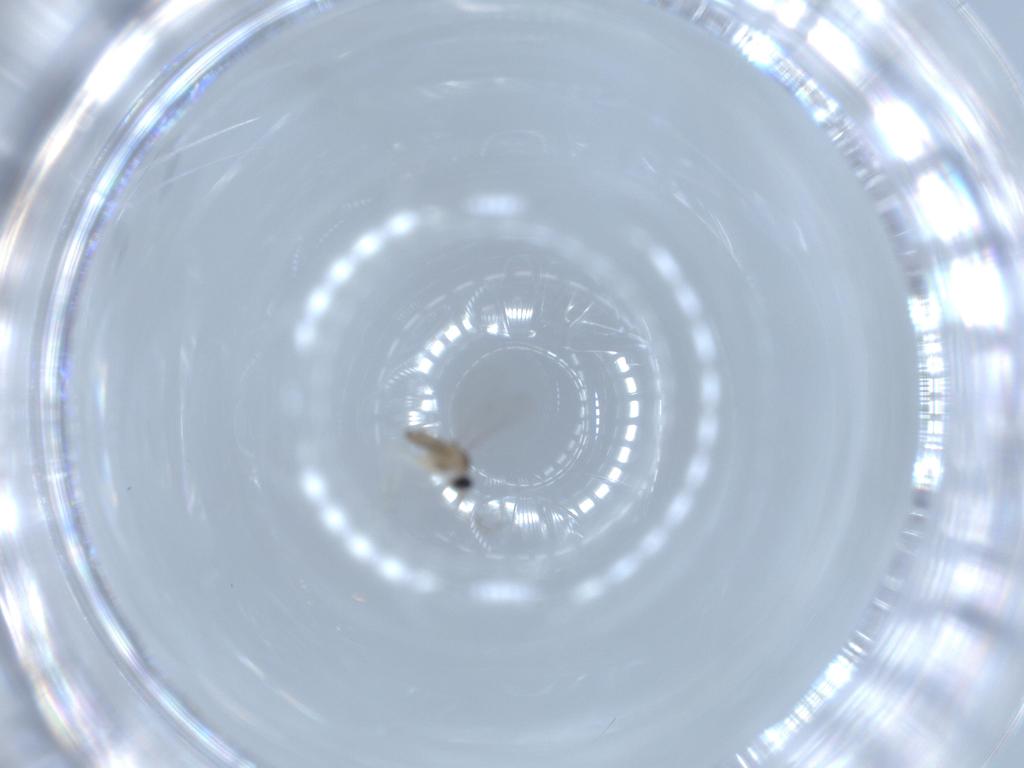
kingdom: Animalia
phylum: Arthropoda
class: Insecta
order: Diptera
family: Cecidomyiidae
